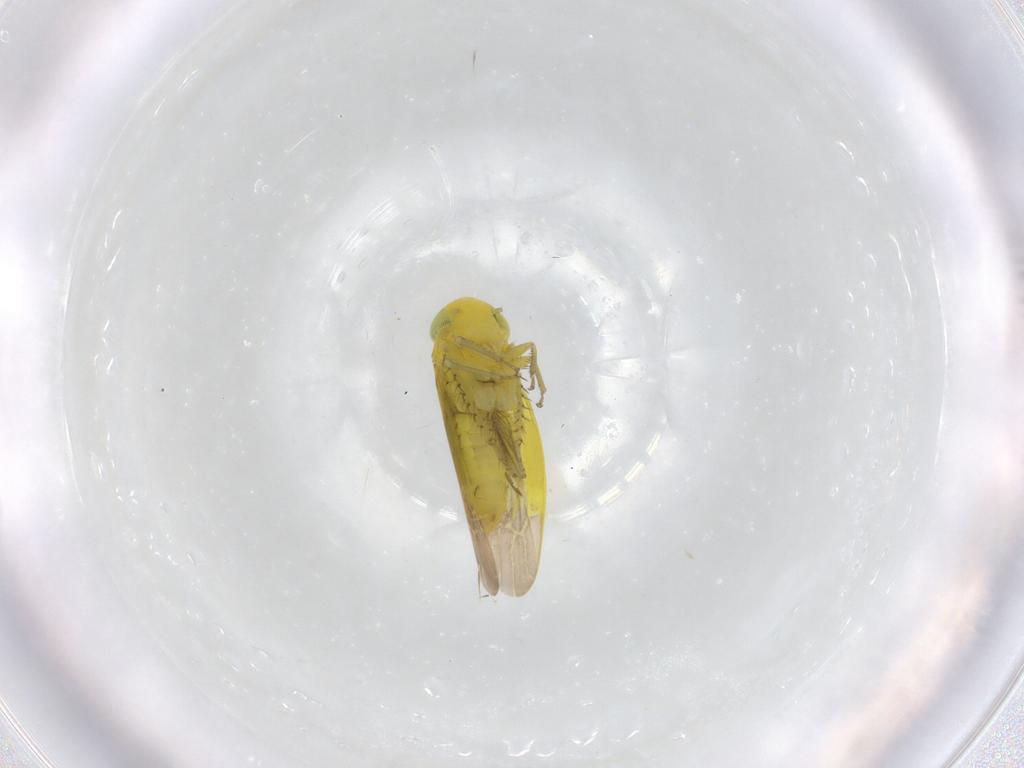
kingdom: Animalia
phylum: Arthropoda
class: Insecta
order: Hemiptera
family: Cicadellidae
